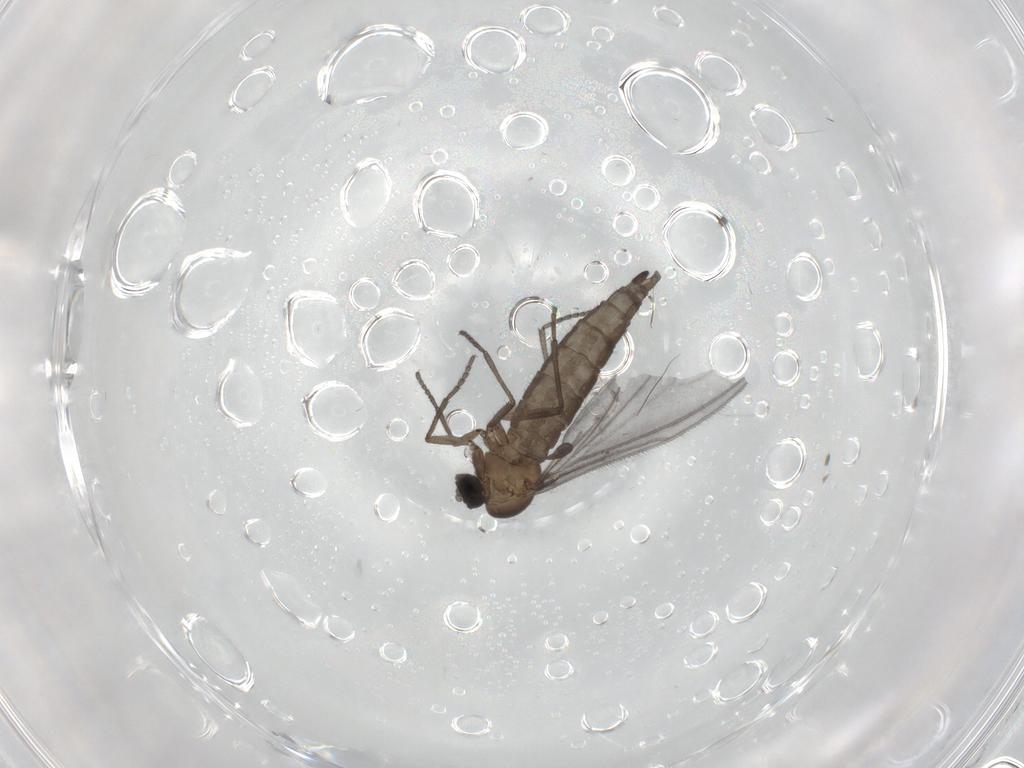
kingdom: Animalia
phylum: Arthropoda
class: Insecta
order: Diptera
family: Sciaridae
